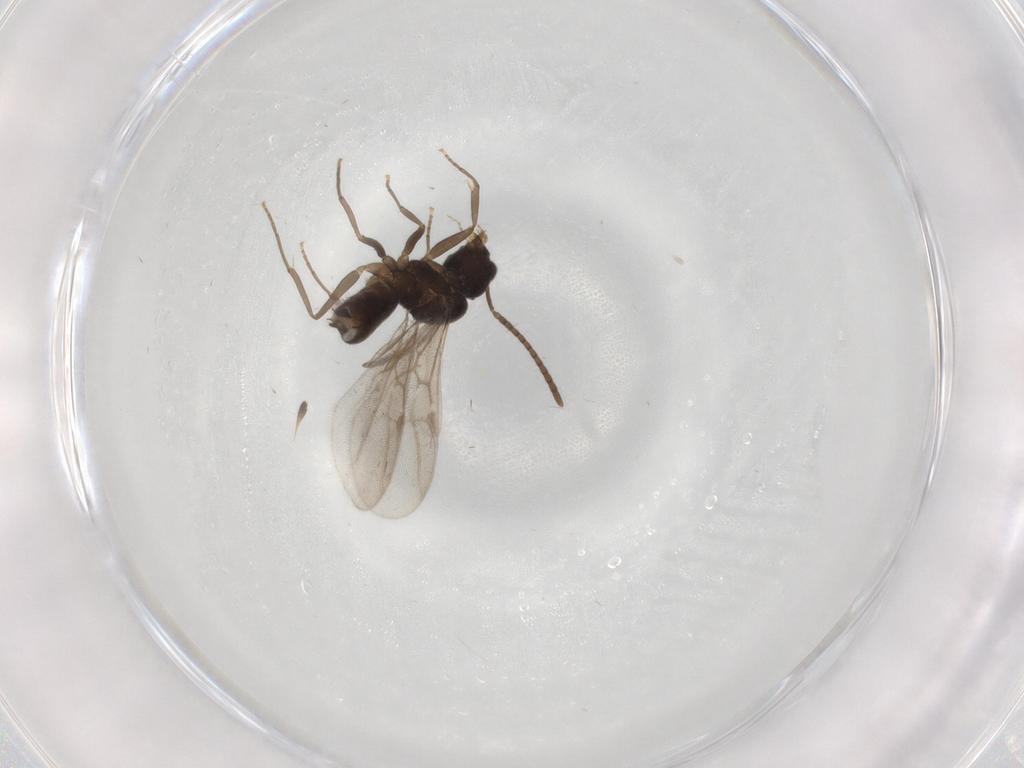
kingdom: Animalia
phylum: Arthropoda
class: Insecta
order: Hymenoptera
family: Formicidae
